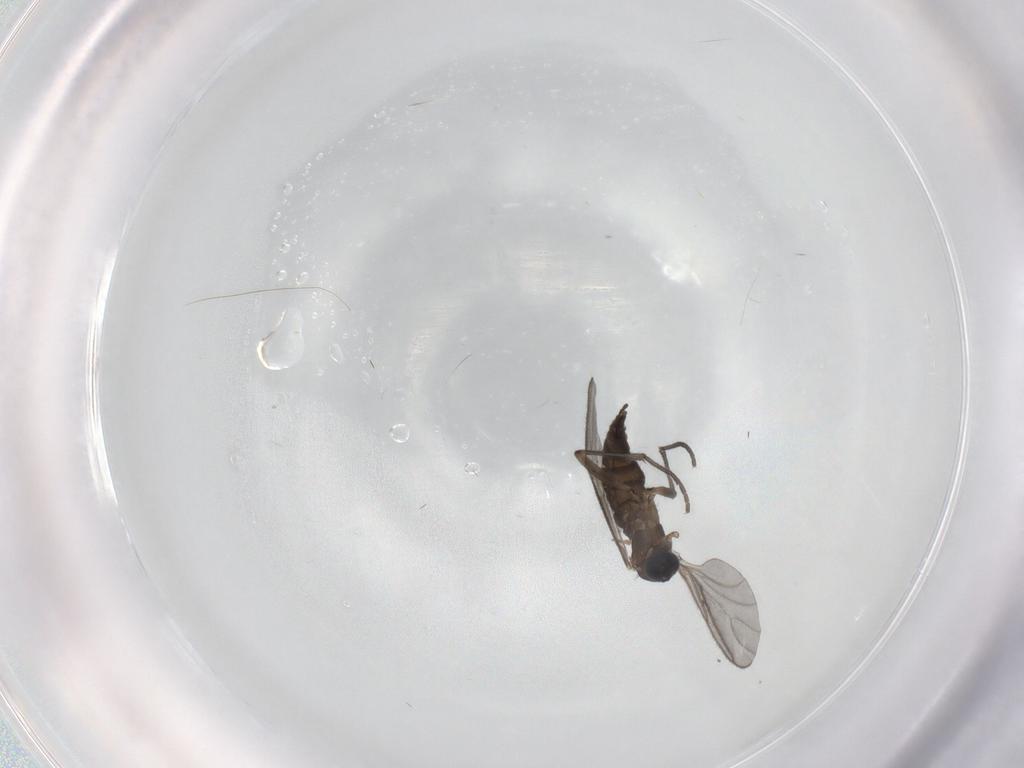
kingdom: Animalia
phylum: Arthropoda
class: Insecta
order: Diptera
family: Sciaridae
